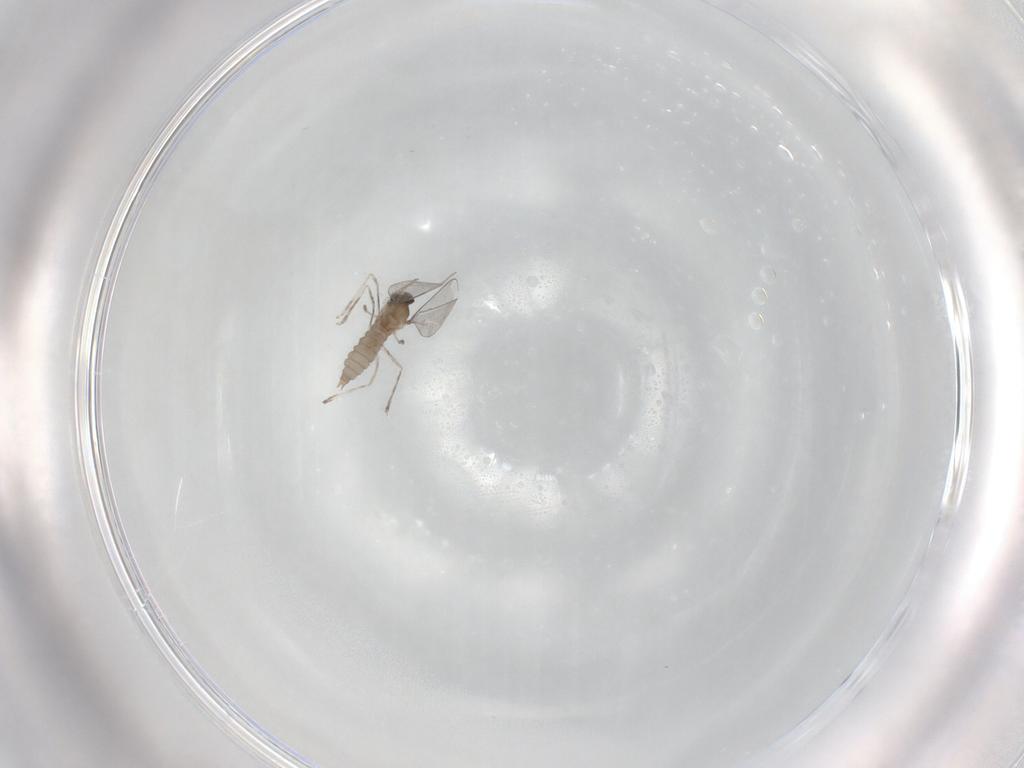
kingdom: Animalia
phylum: Arthropoda
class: Insecta
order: Diptera
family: Cecidomyiidae
